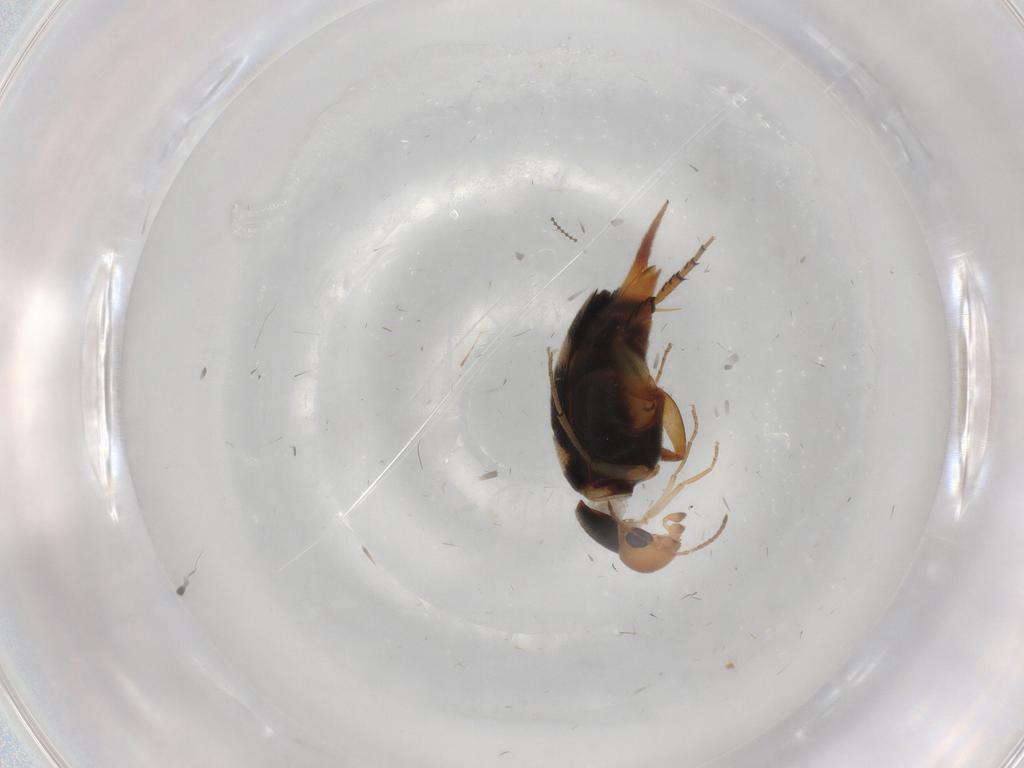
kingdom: Animalia
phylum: Arthropoda
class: Insecta
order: Coleoptera
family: Mordellidae
